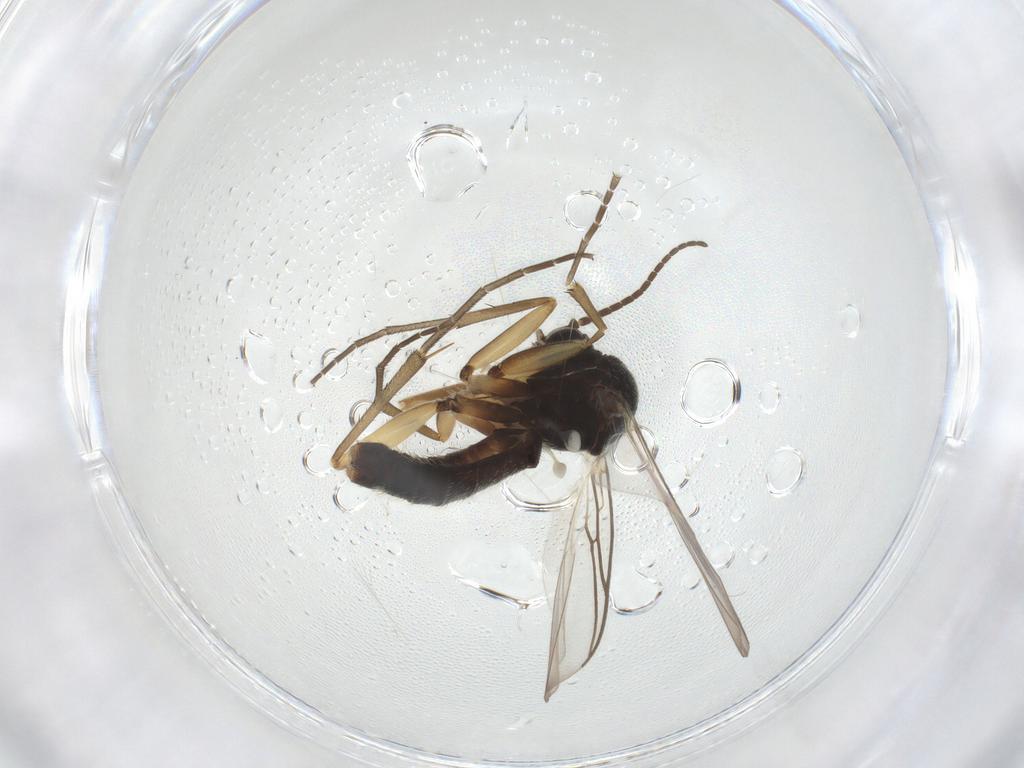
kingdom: Animalia
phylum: Arthropoda
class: Insecta
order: Diptera
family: Mycetophilidae
